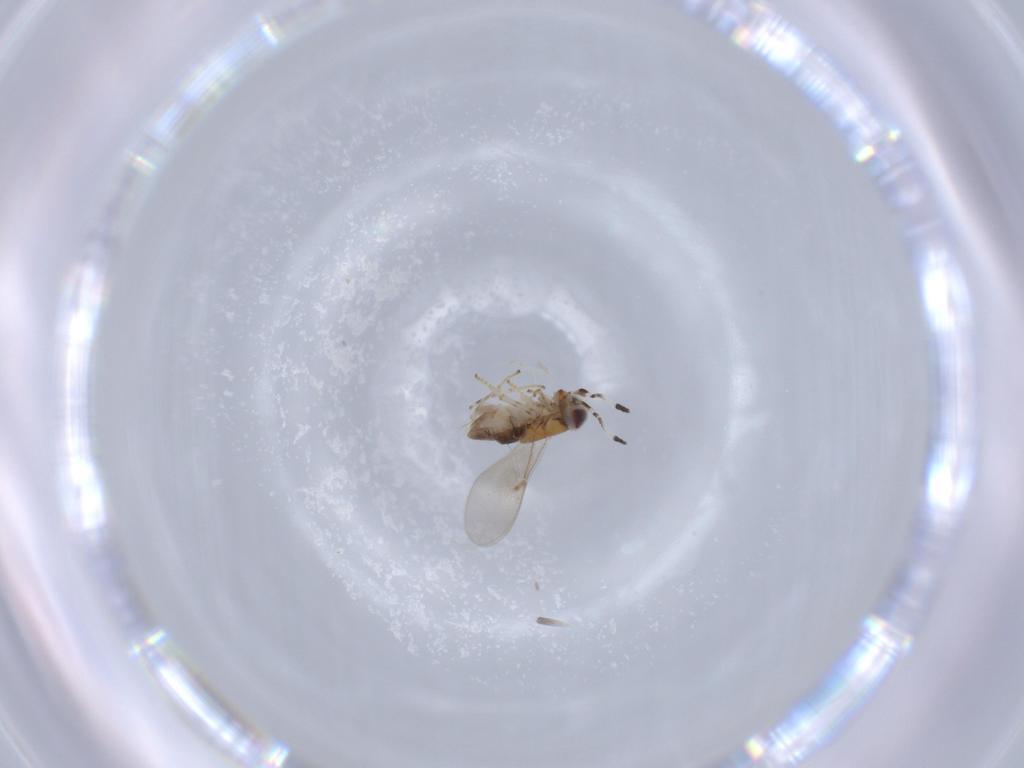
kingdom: Animalia
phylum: Arthropoda
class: Insecta
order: Hymenoptera
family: Encyrtidae
